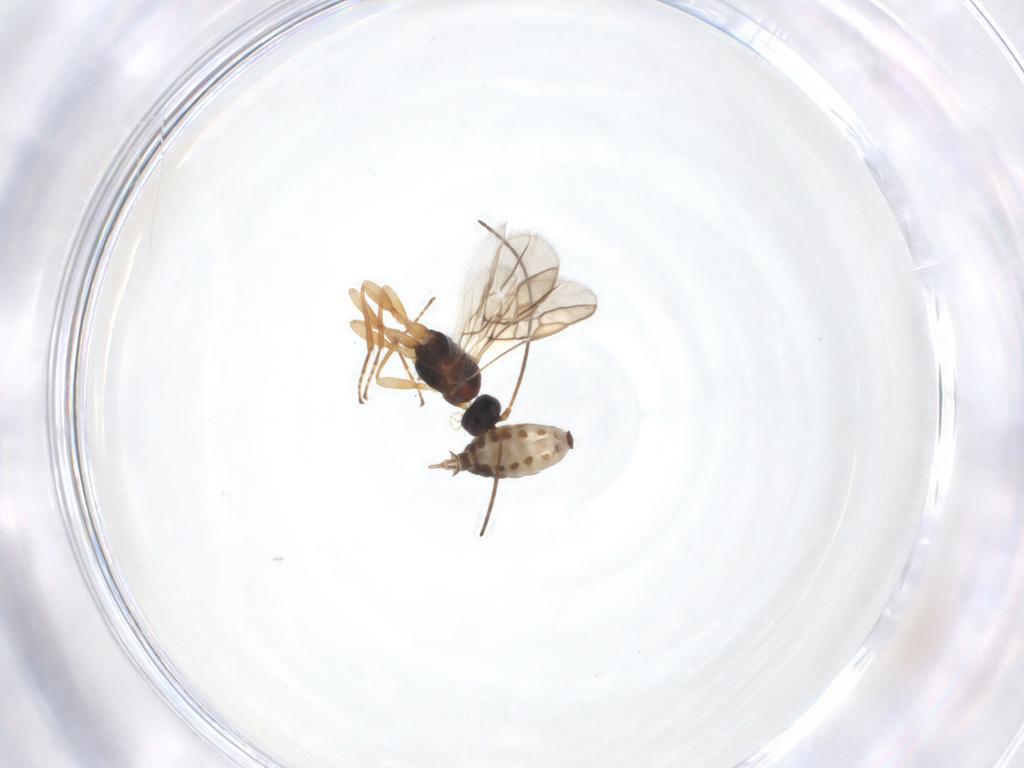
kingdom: Animalia
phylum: Arthropoda
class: Insecta
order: Hymenoptera
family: Braconidae
